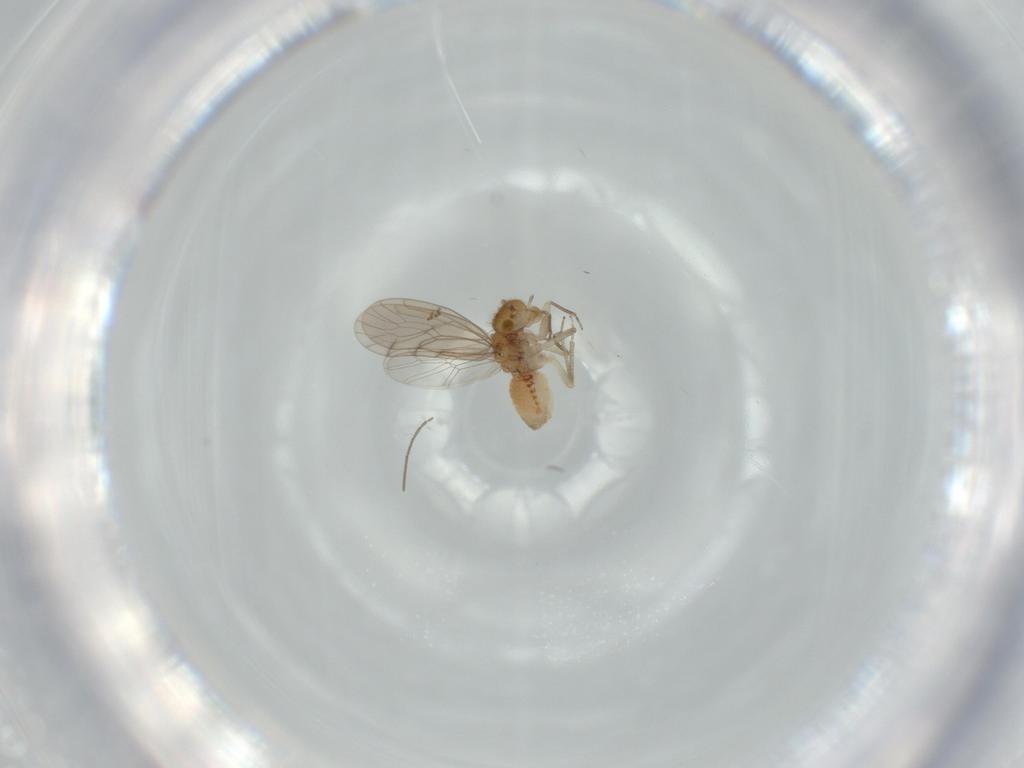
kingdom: Animalia
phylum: Arthropoda
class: Insecta
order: Psocodea
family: Ectopsocidae
